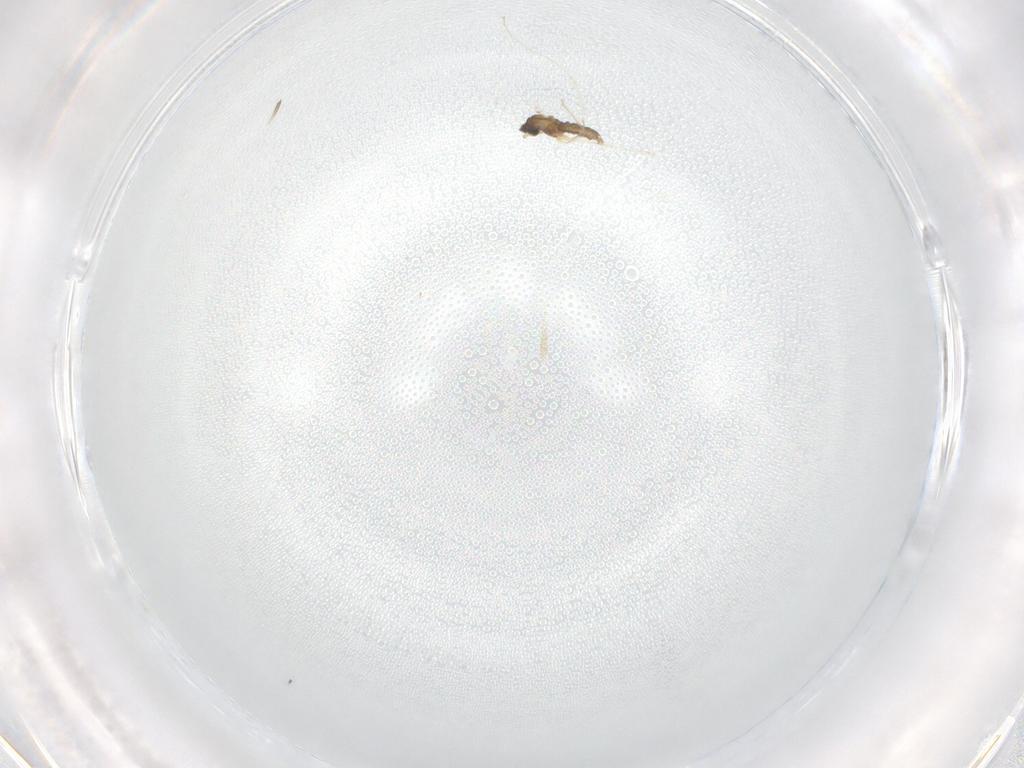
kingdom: Animalia
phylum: Arthropoda
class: Insecta
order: Diptera
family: Cecidomyiidae
